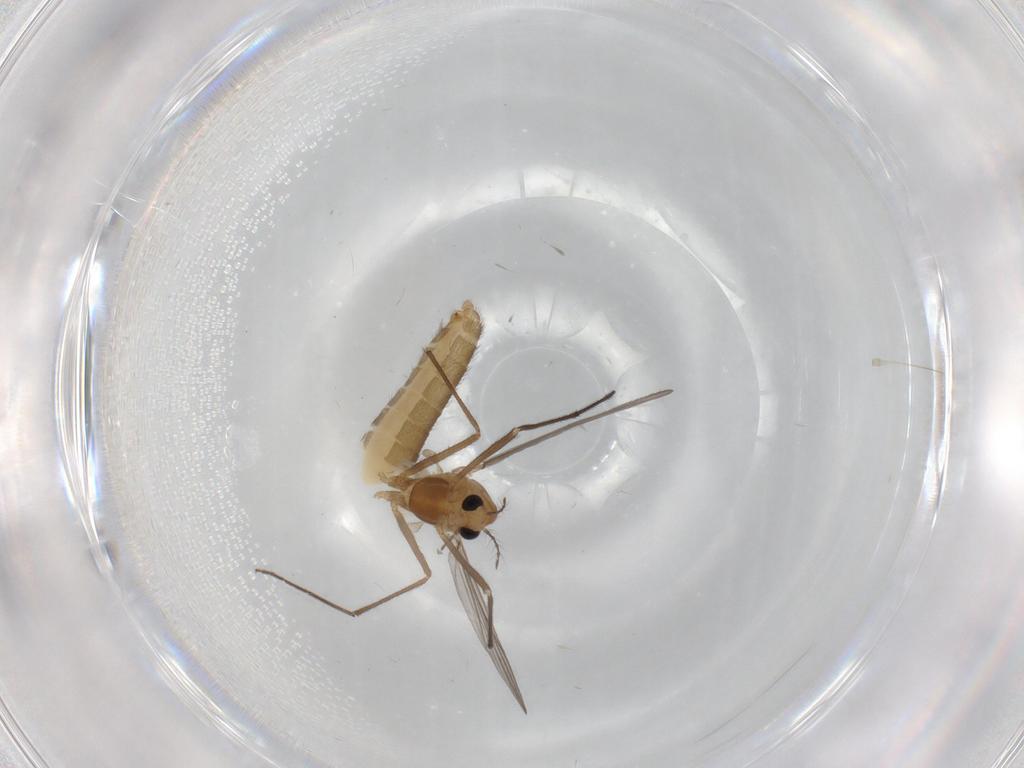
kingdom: Animalia
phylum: Arthropoda
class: Insecta
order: Diptera
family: Chironomidae
